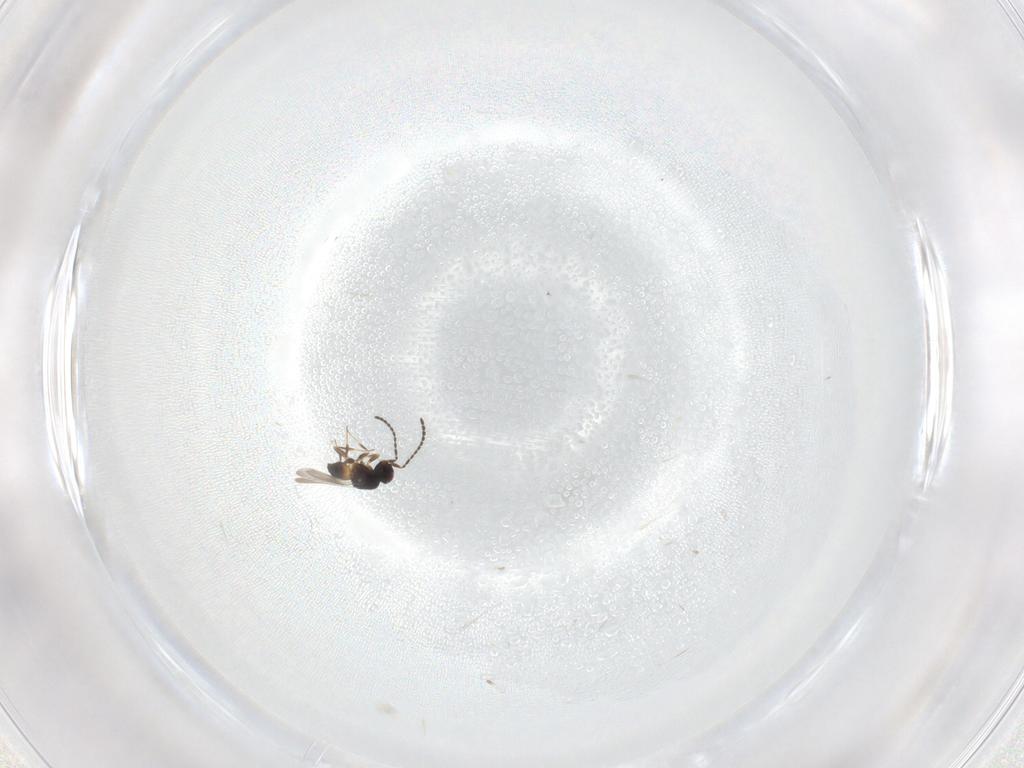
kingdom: Animalia
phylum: Arthropoda
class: Insecta
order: Hymenoptera
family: Ceraphronidae
